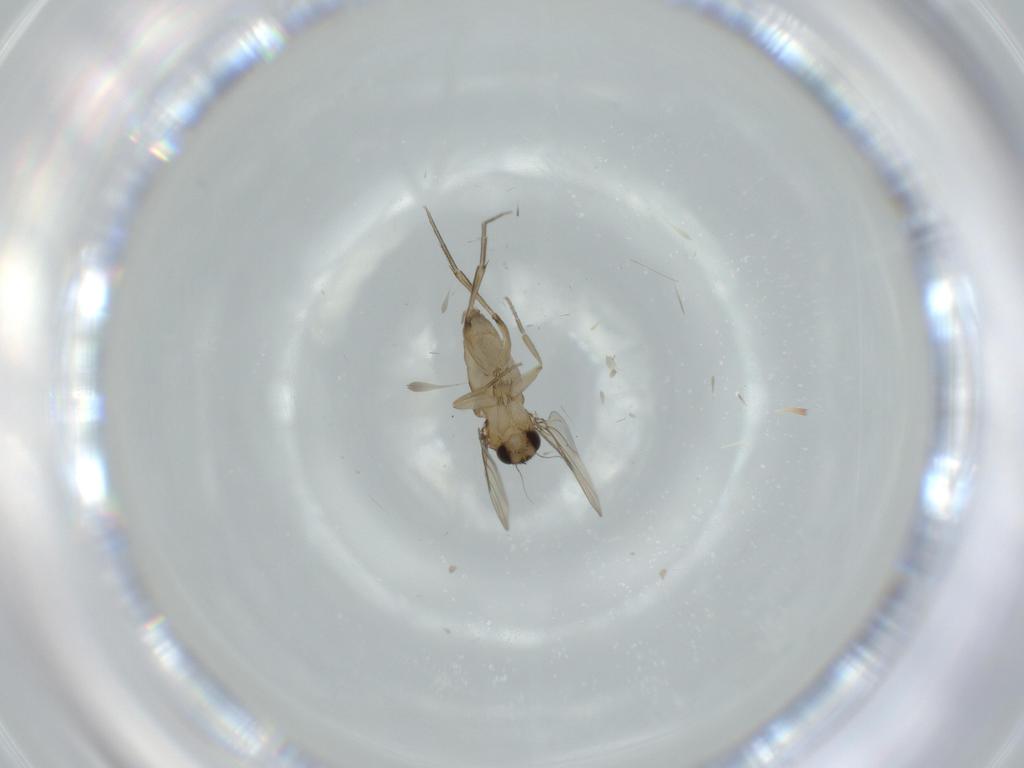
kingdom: Animalia
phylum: Arthropoda
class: Insecta
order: Diptera
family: Phoridae
